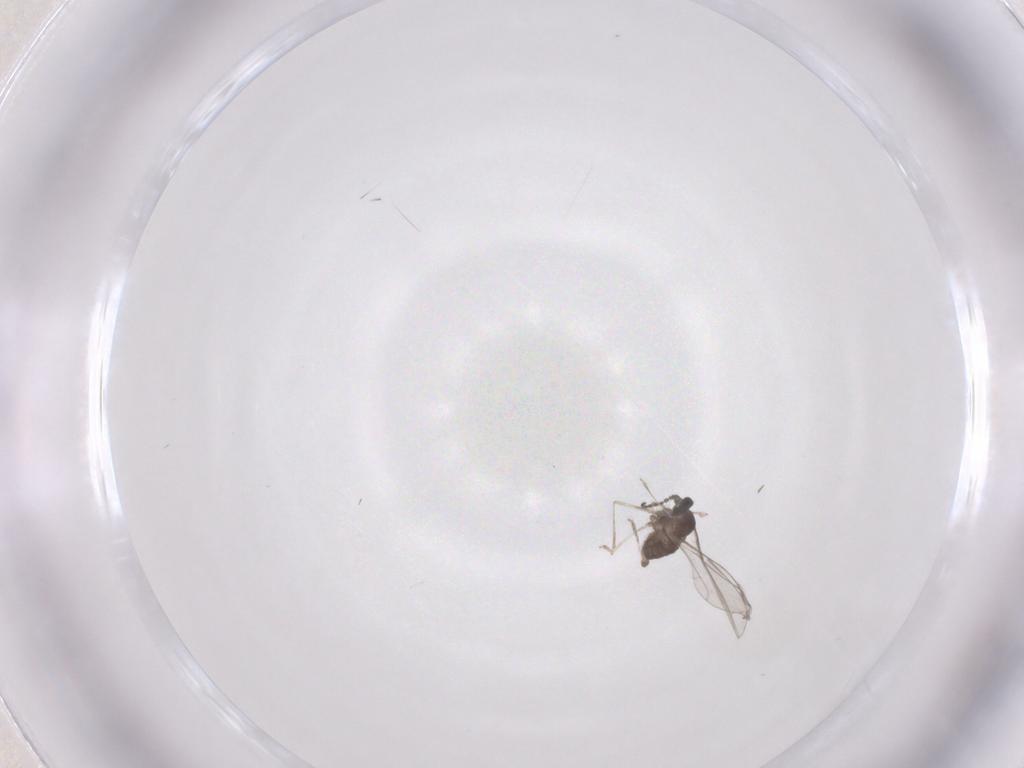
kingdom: Animalia
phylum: Arthropoda
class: Insecta
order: Diptera
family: Cecidomyiidae
